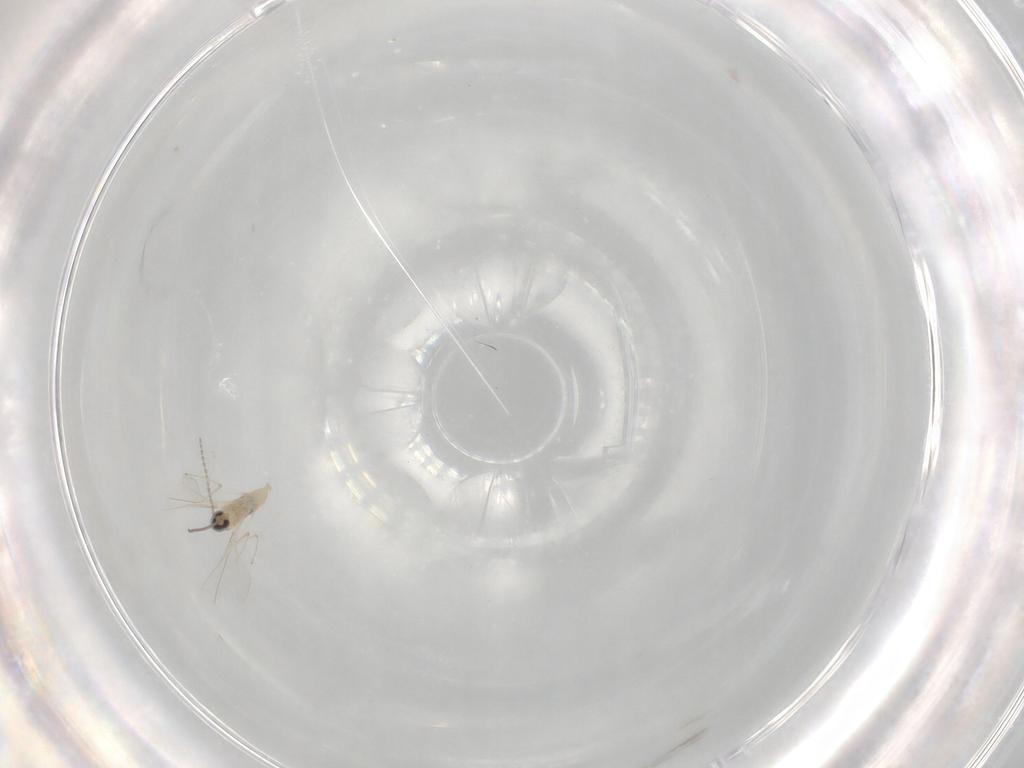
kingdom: Animalia
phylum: Arthropoda
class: Insecta
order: Diptera
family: Cecidomyiidae
